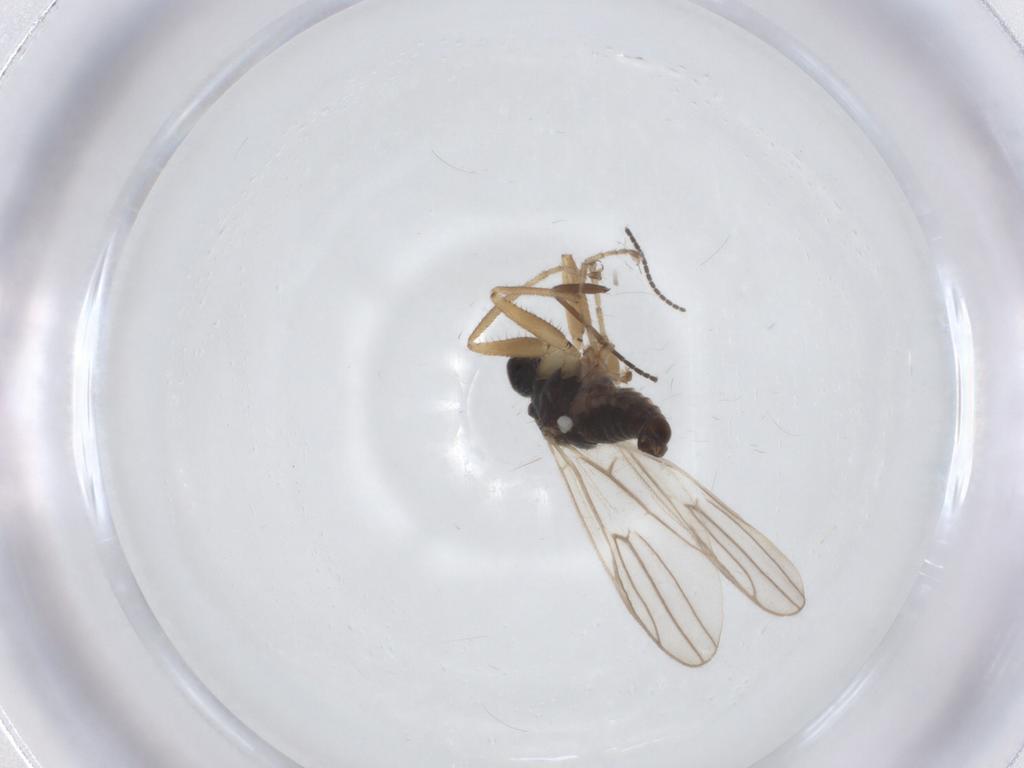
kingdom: Animalia
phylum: Arthropoda
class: Insecta
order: Diptera
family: Hybotidae
